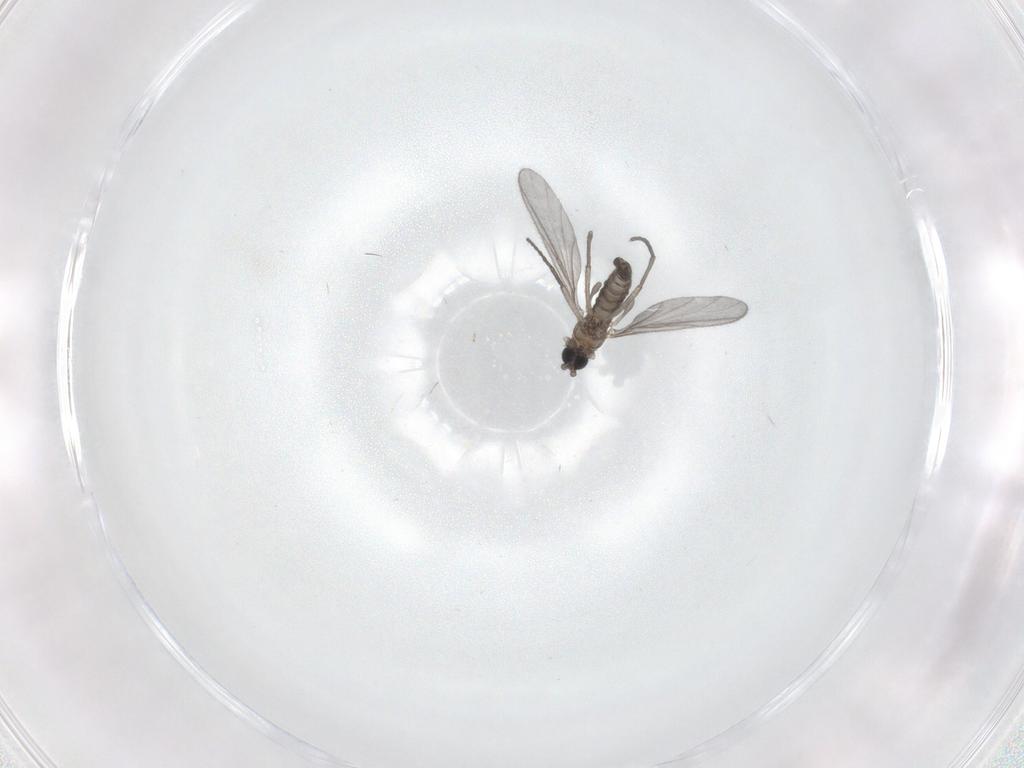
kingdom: Animalia
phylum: Arthropoda
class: Insecta
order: Diptera
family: Sciaridae
